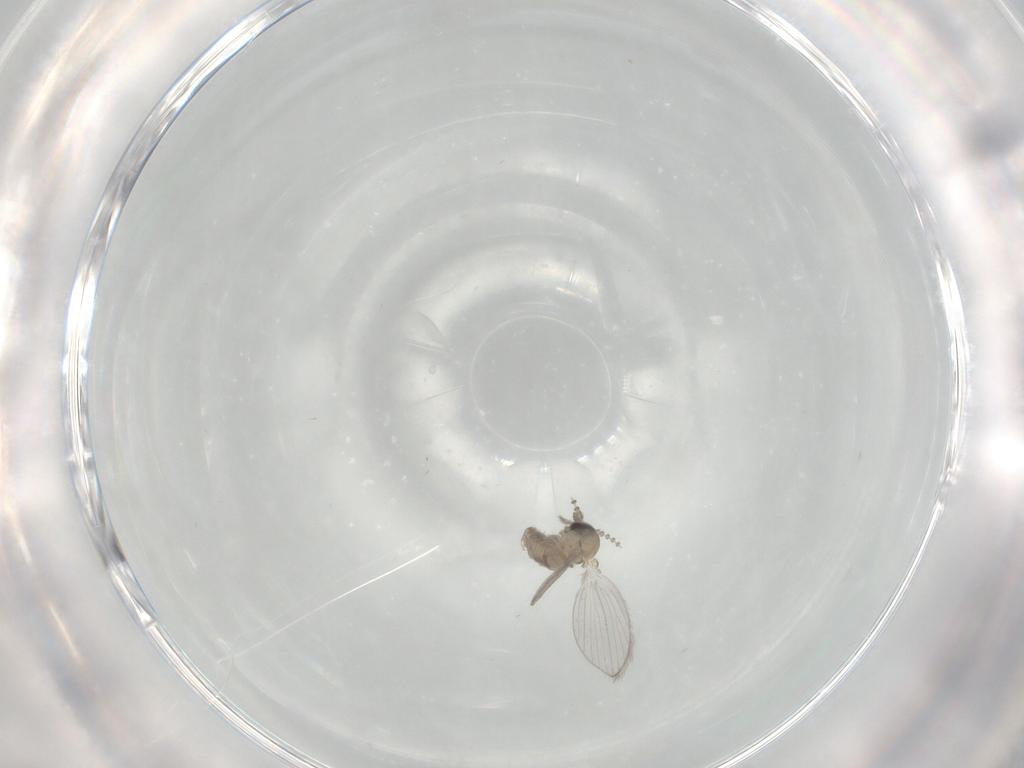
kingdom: Animalia
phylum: Arthropoda
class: Insecta
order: Diptera
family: Psychodidae
